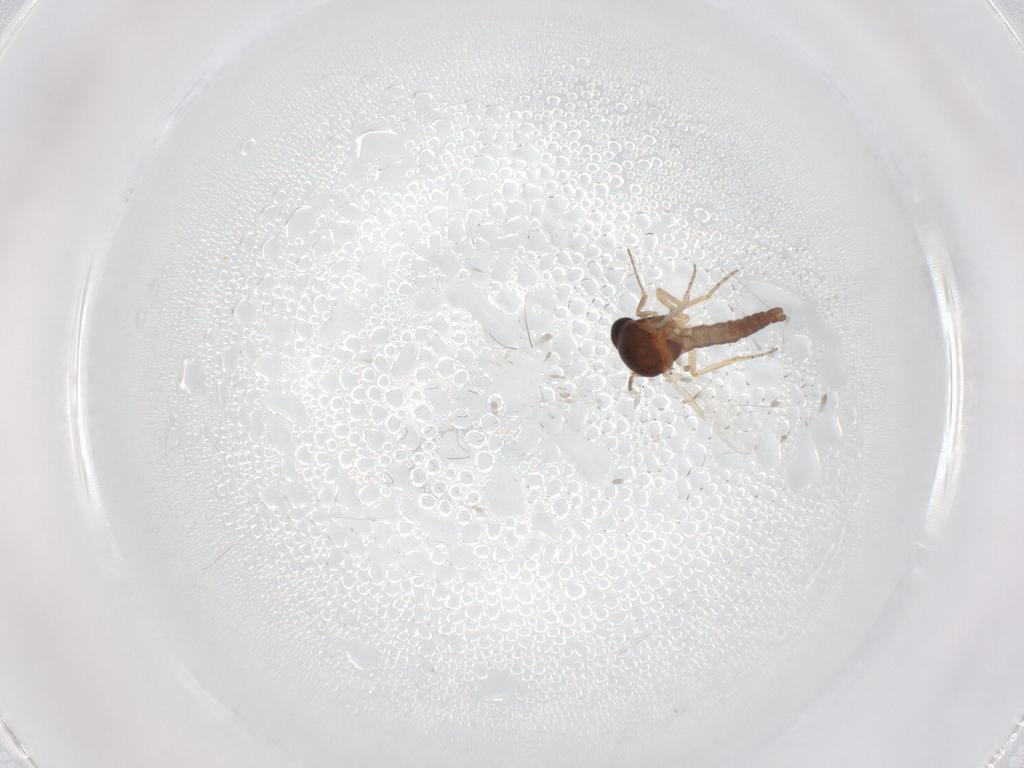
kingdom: Animalia
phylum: Arthropoda
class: Insecta
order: Diptera
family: Ceratopogonidae
